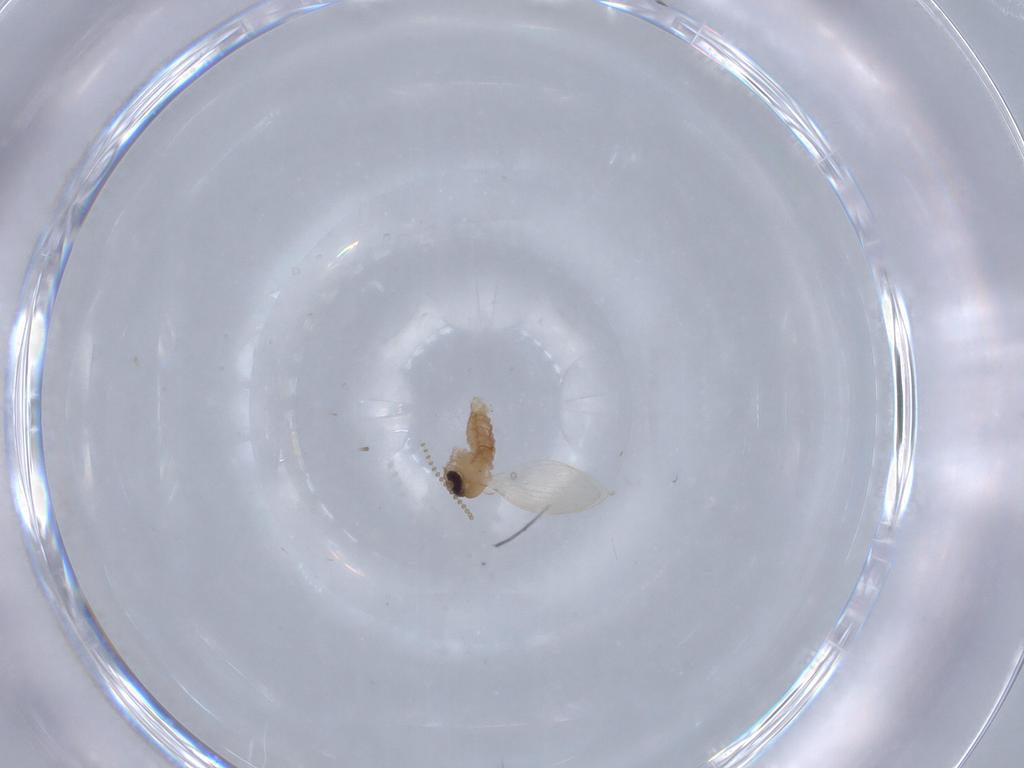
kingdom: Animalia
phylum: Arthropoda
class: Insecta
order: Diptera
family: Psychodidae
